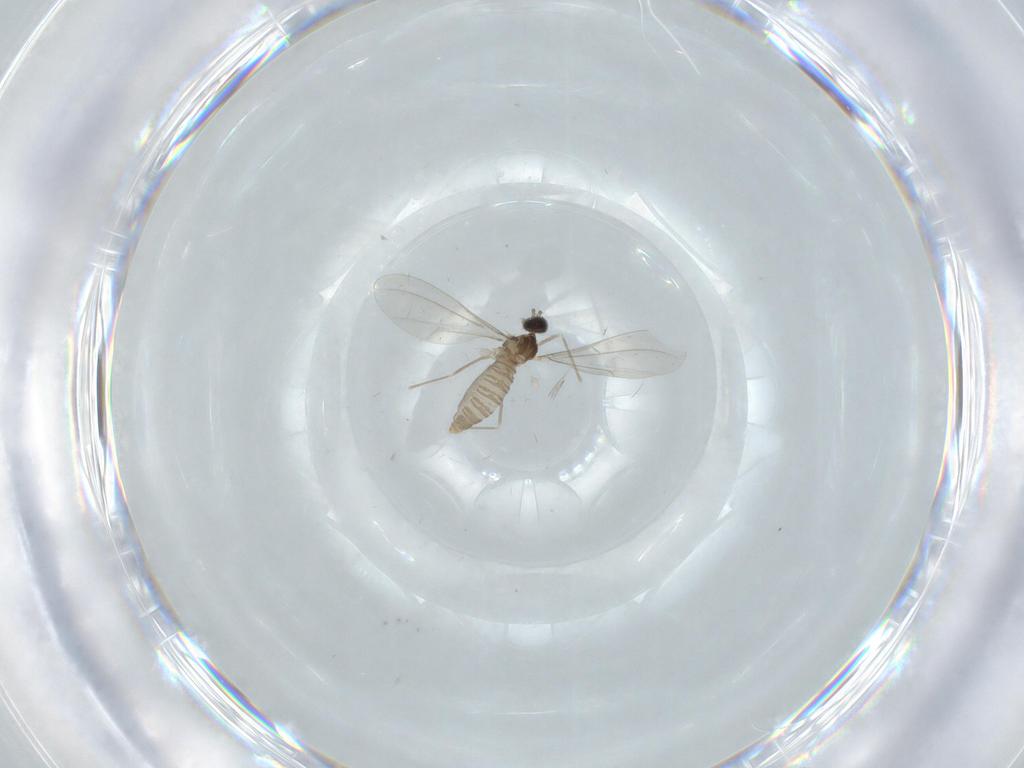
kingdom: Animalia
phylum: Arthropoda
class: Insecta
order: Diptera
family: Cecidomyiidae
